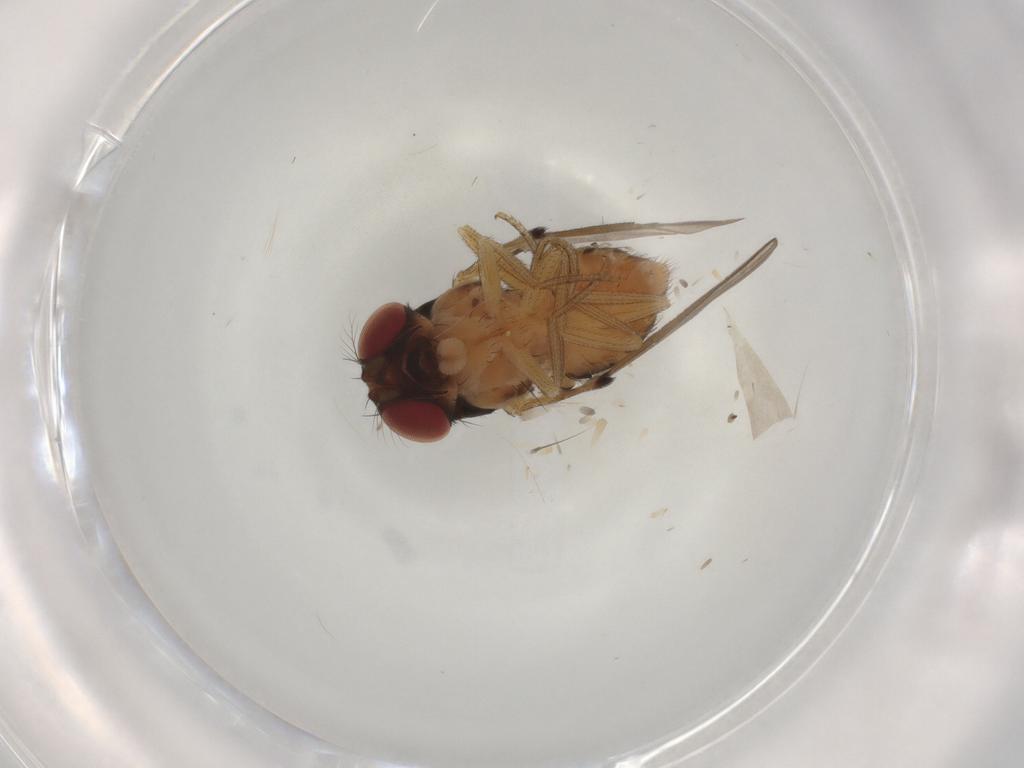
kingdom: Animalia
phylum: Arthropoda
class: Insecta
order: Diptera
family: Drosophilidae
